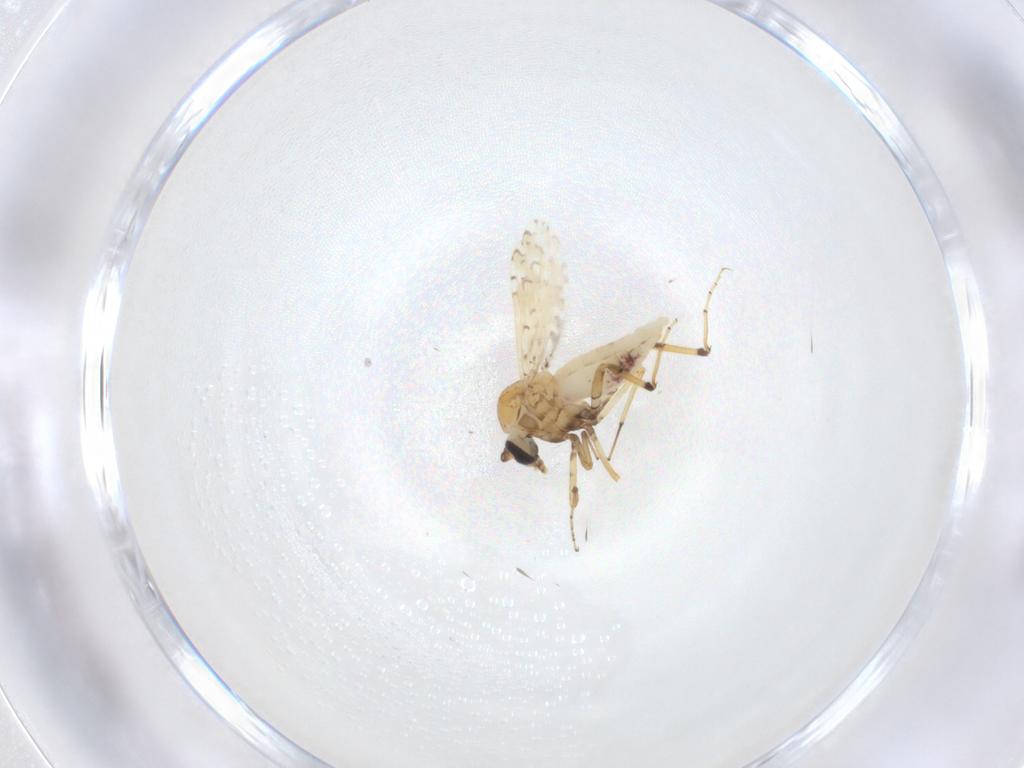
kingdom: Animalia
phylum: Arthropoda
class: Insecta
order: Diptera
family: Ceratopogonidae
